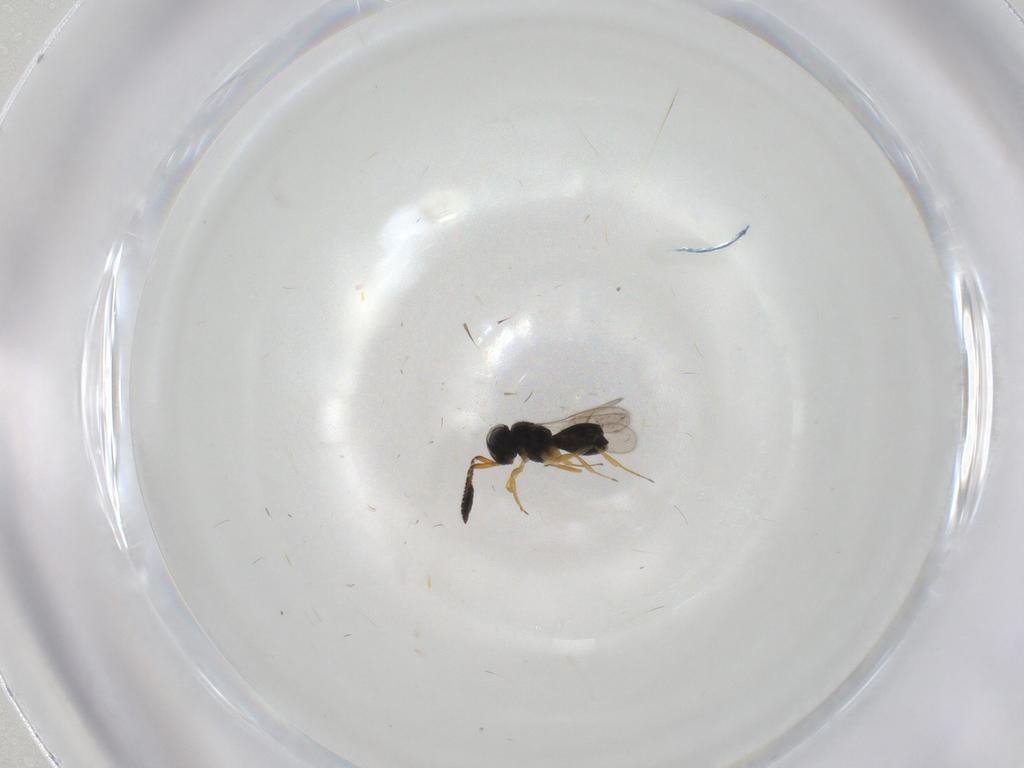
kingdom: Animalia
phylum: Arthropoda
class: Insecta
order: Hymenoptera
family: Scelionidae
